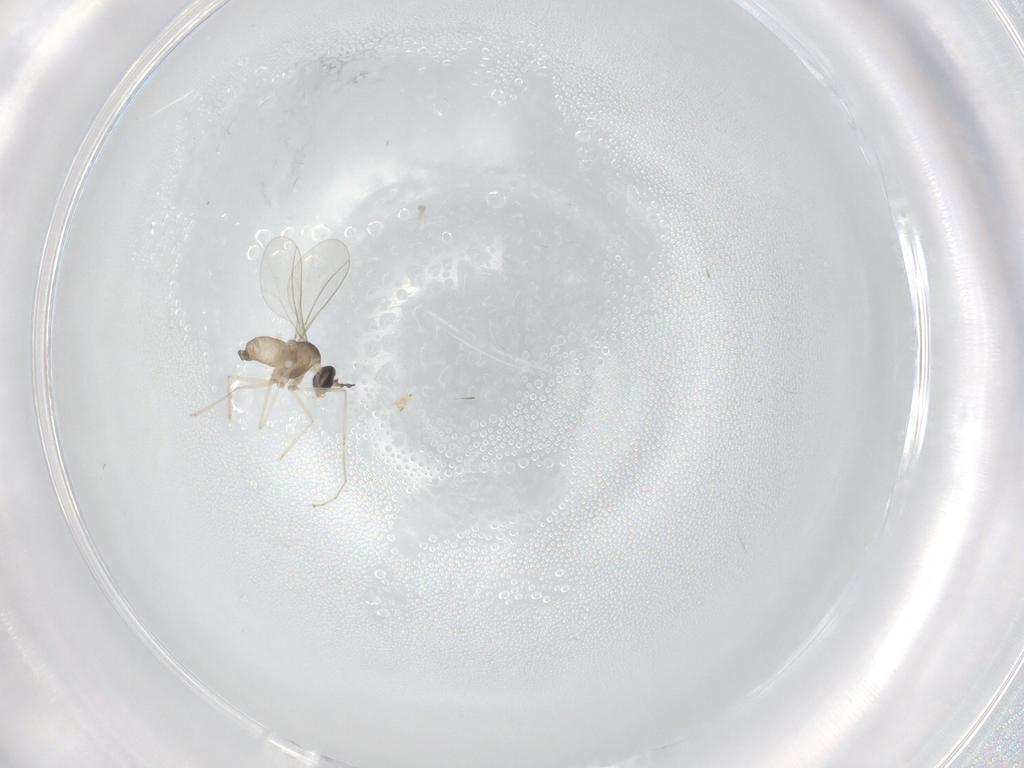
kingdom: Animalia
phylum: Arthropoda
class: Insecta
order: Diptera
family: Cecidomyiidae
